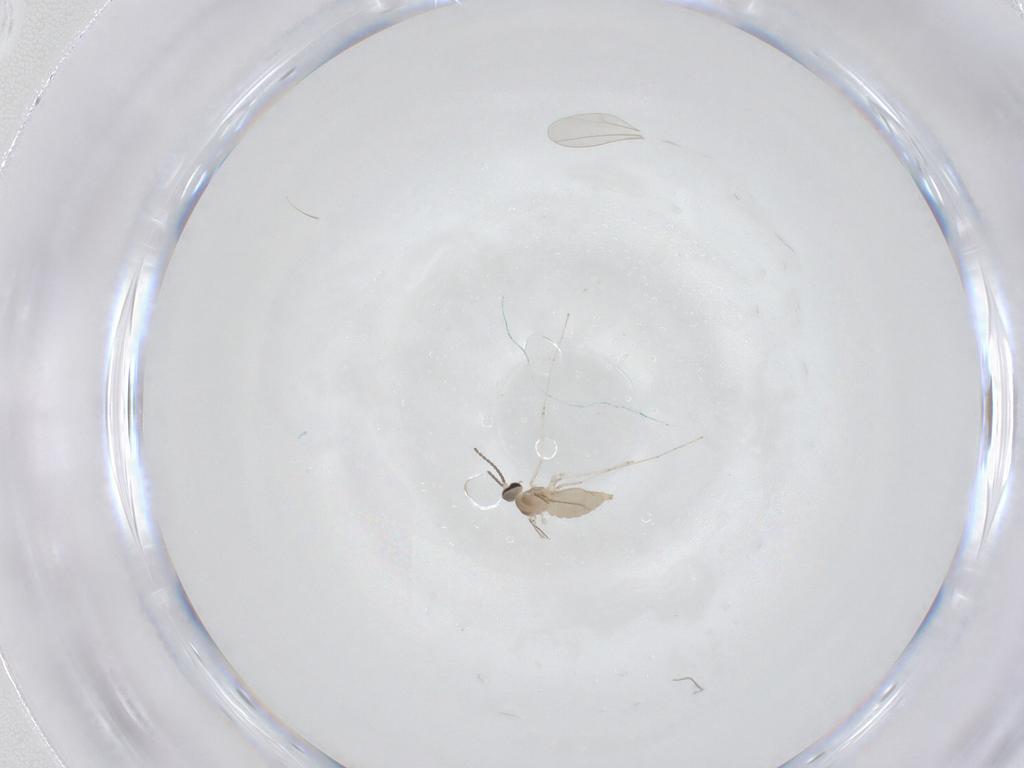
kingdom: Animalia
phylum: Arthropoda
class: Insecta
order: Diptera
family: Cecidomyiidae
